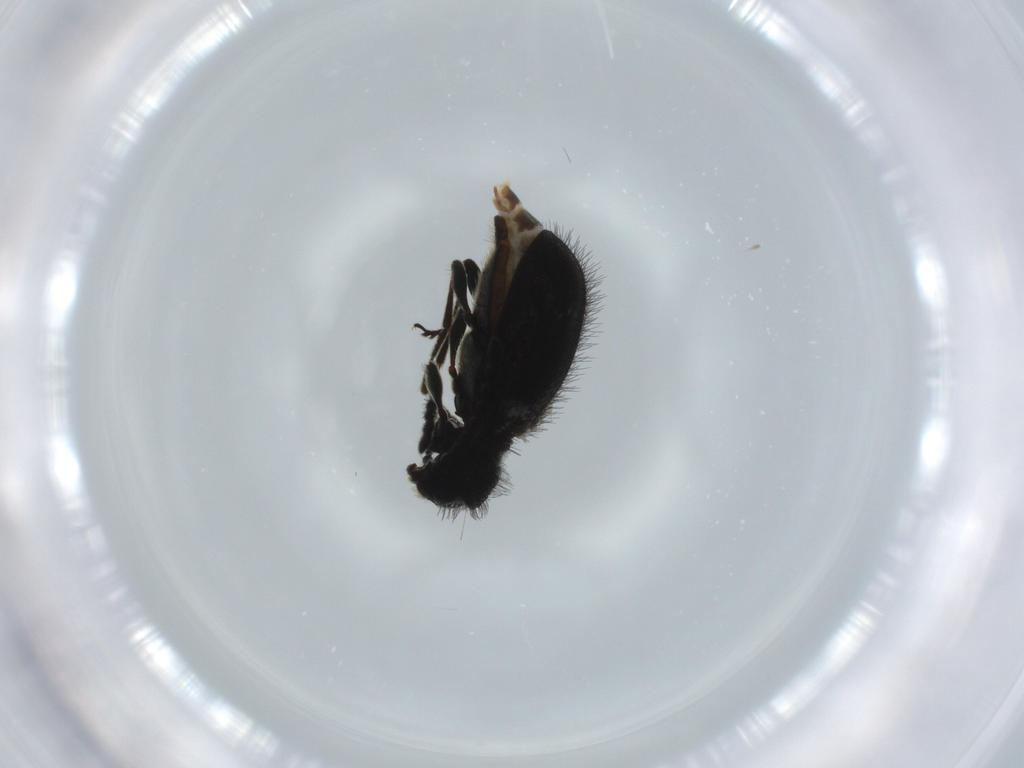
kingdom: Animalia
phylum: Arthropoda
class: Insecta
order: Coleoptera
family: Ptinidae
